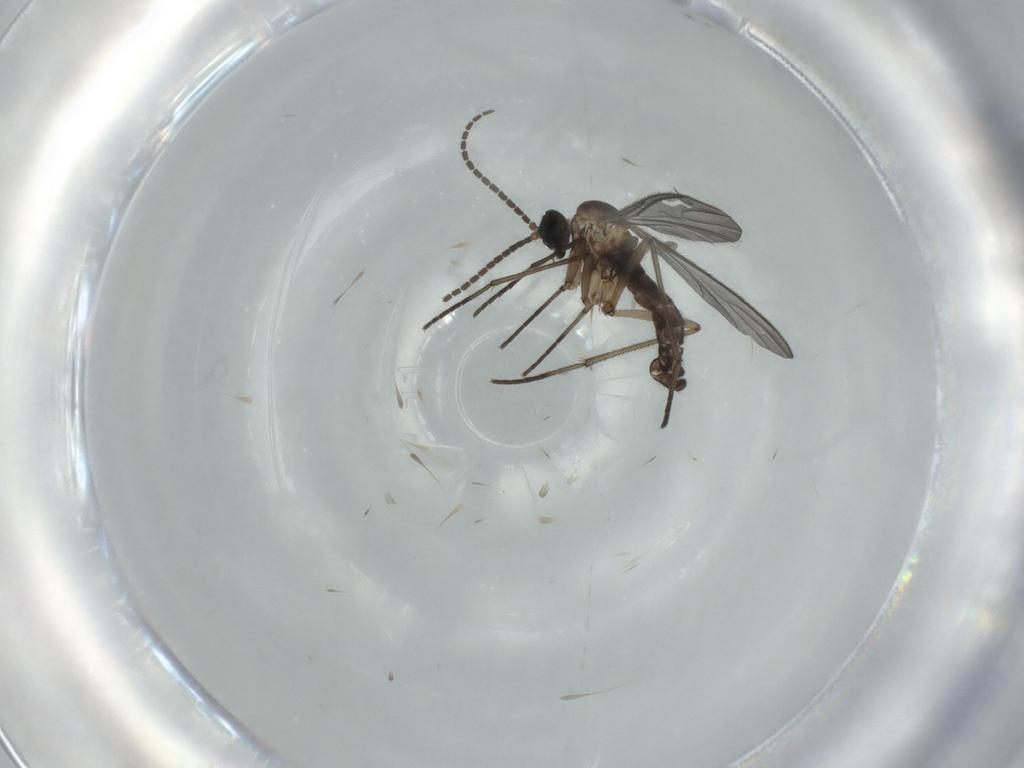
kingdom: Animalia
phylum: Arthropoda
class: Insecta
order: Diptera
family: Sciaridae
